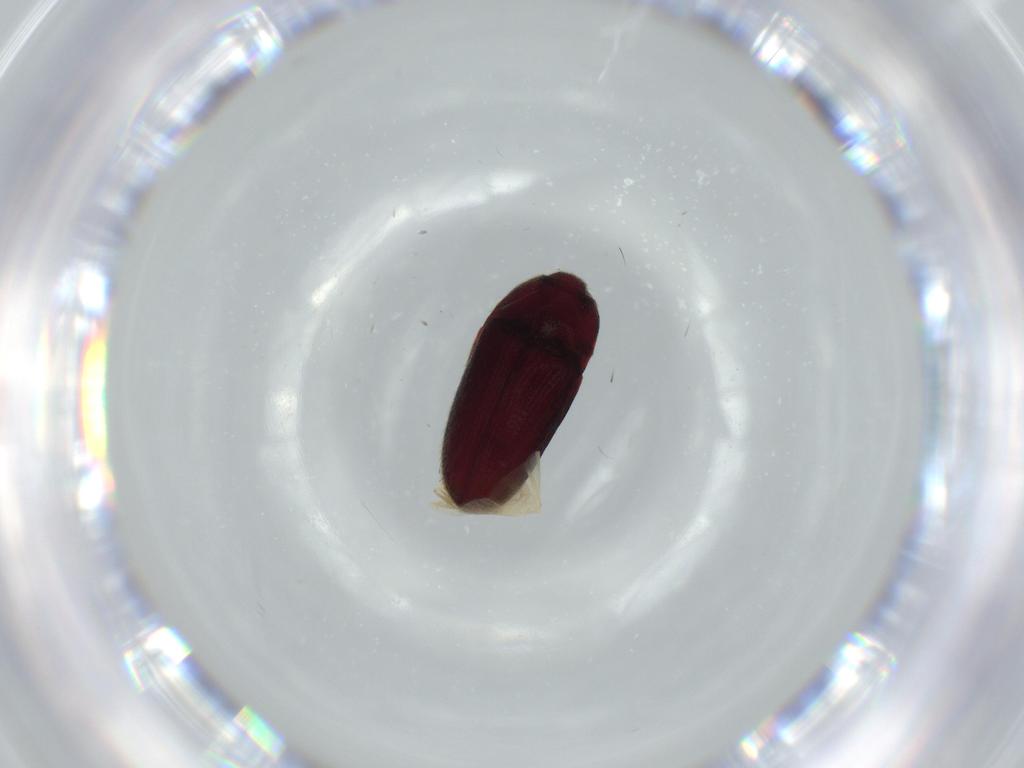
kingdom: Animalia
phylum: Arthropoda
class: Insecta
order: Coleoptera
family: Throscidae
